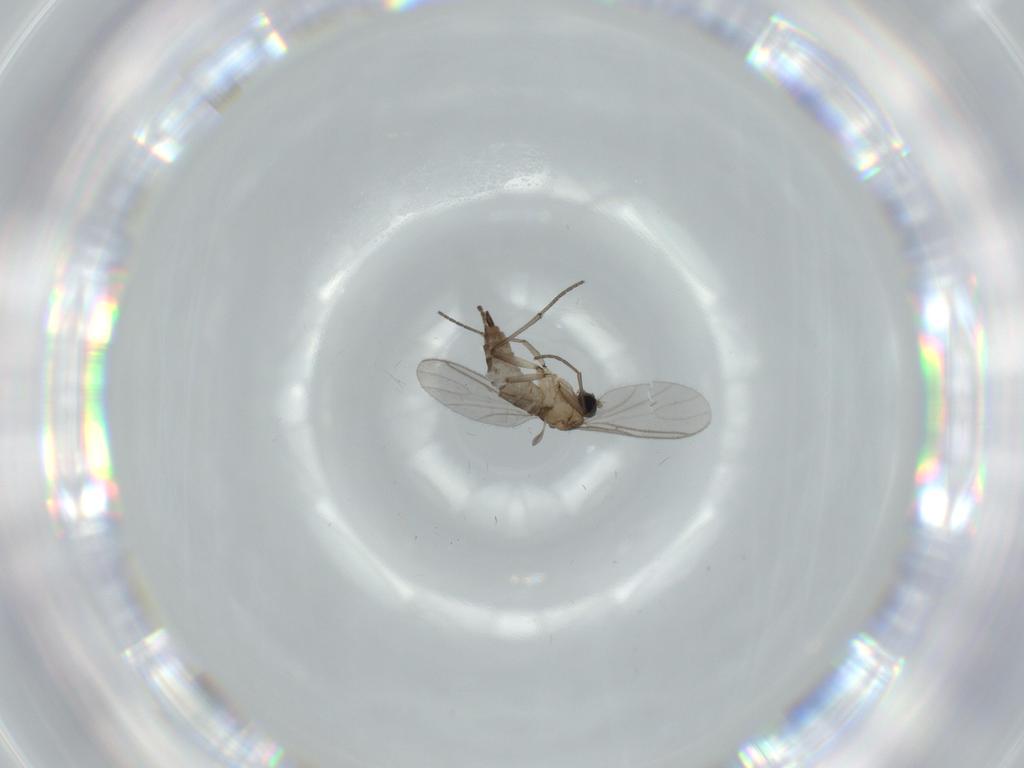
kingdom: Animalia
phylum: Arthropoda
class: Insecta
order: Diptera
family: Sciaridae
